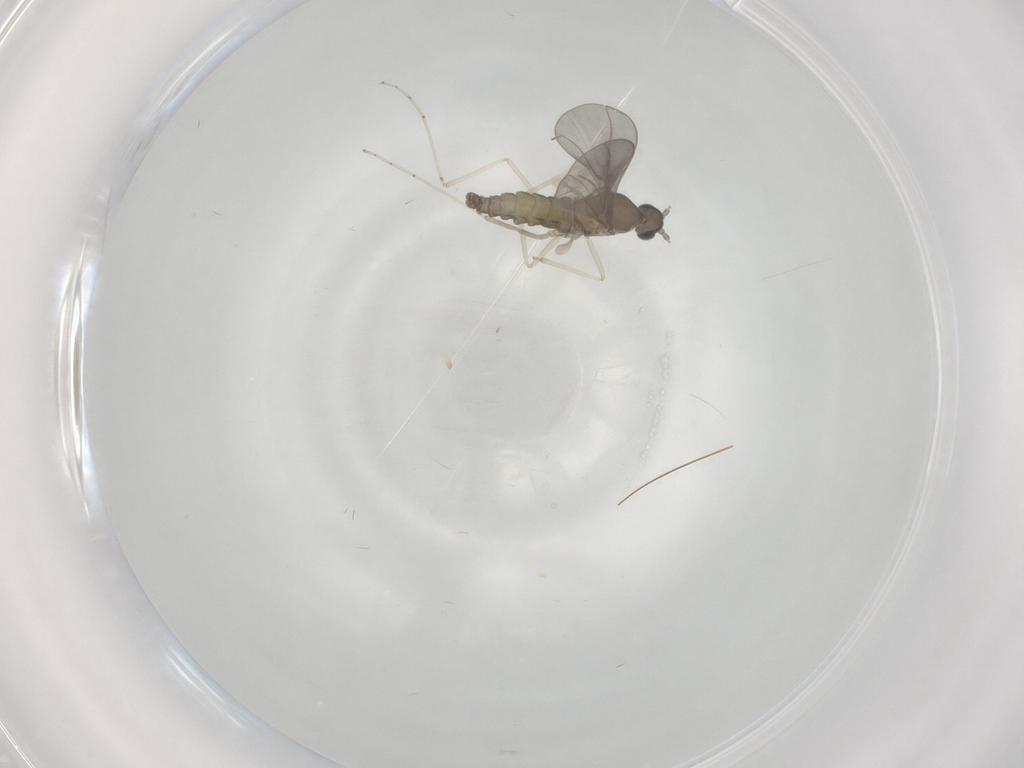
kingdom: Animalia
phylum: Arthropoda
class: Insecta
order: Diptera
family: Cecidomyiidae
